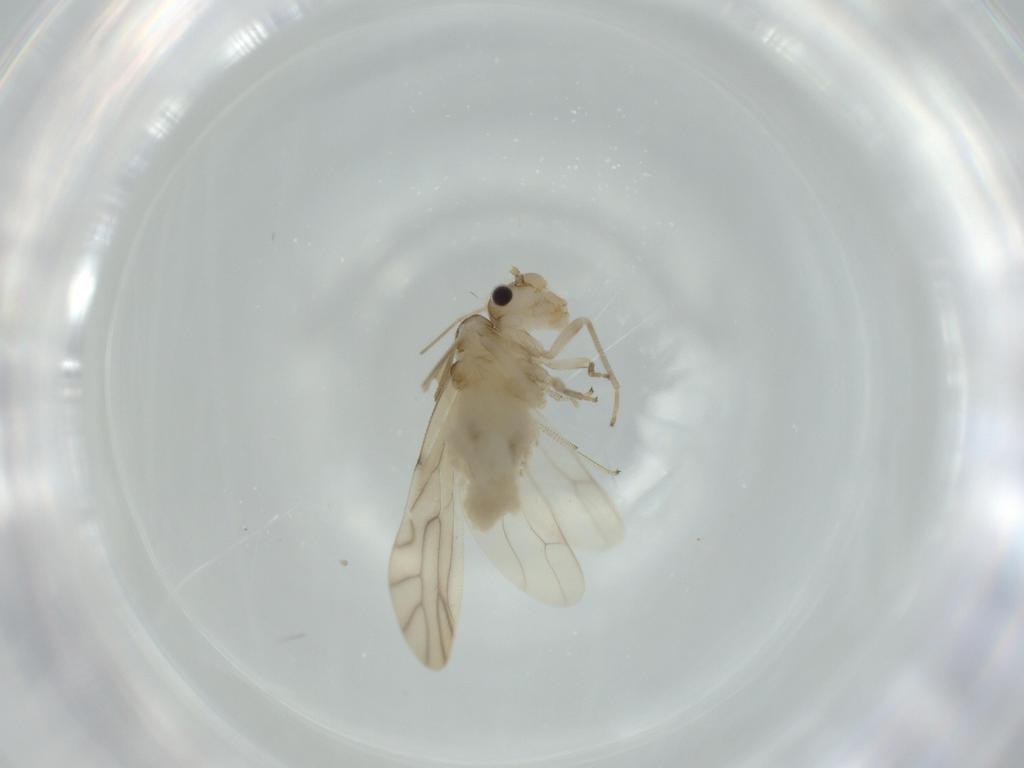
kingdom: Animalia
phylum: Arthropoda
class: Insecta
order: Psocodea
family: Caeciliusidae
